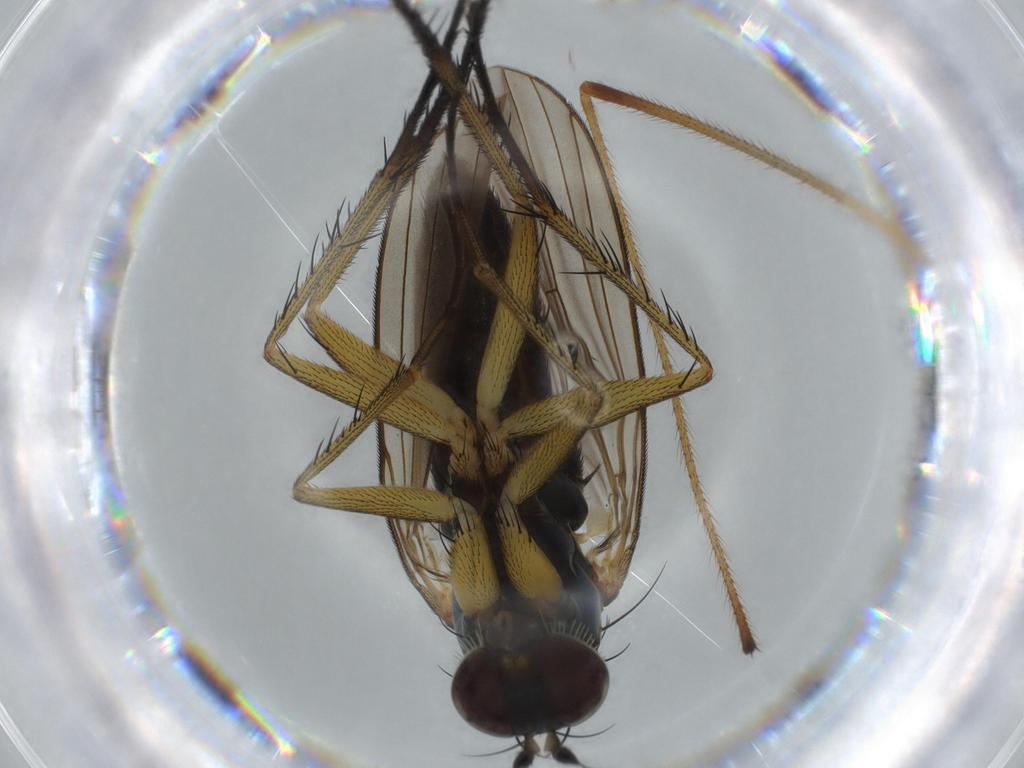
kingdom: Animalia
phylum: Arthropoda
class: Insecta
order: Diptera
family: Dolichopodidae
